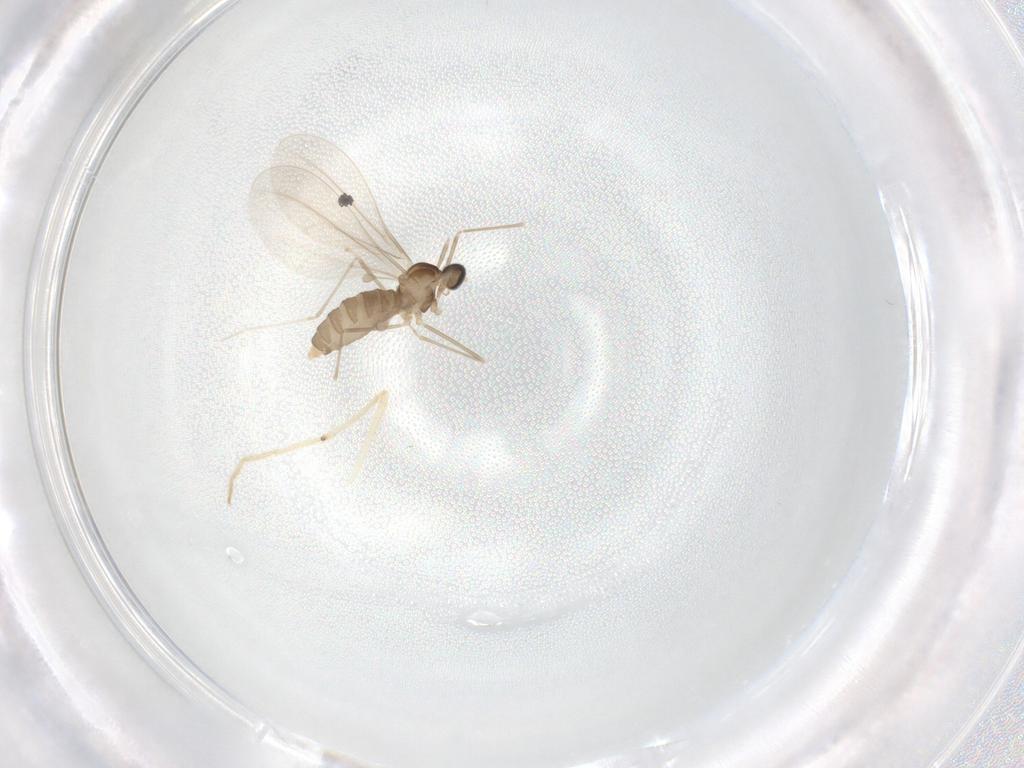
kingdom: Animalia
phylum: Arthropoda
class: Insecta
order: Diptera
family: Cecidomyiidae
